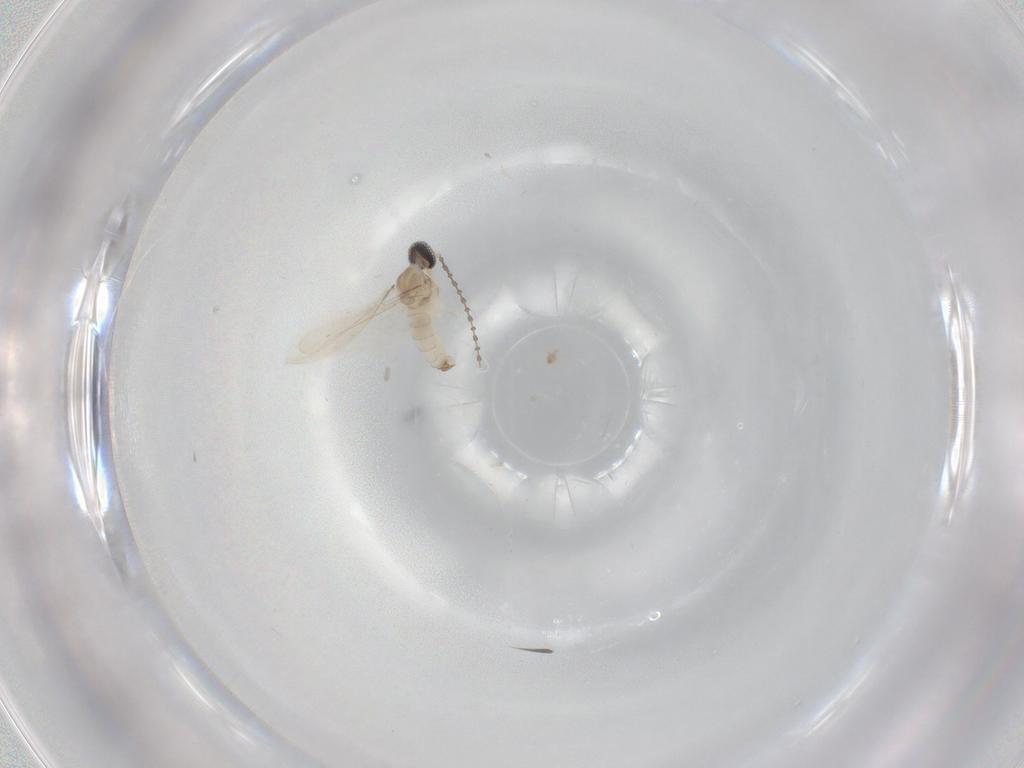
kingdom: Animalia
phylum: Arthropoda
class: Insecta
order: Diptera
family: Cecidomyiidae
